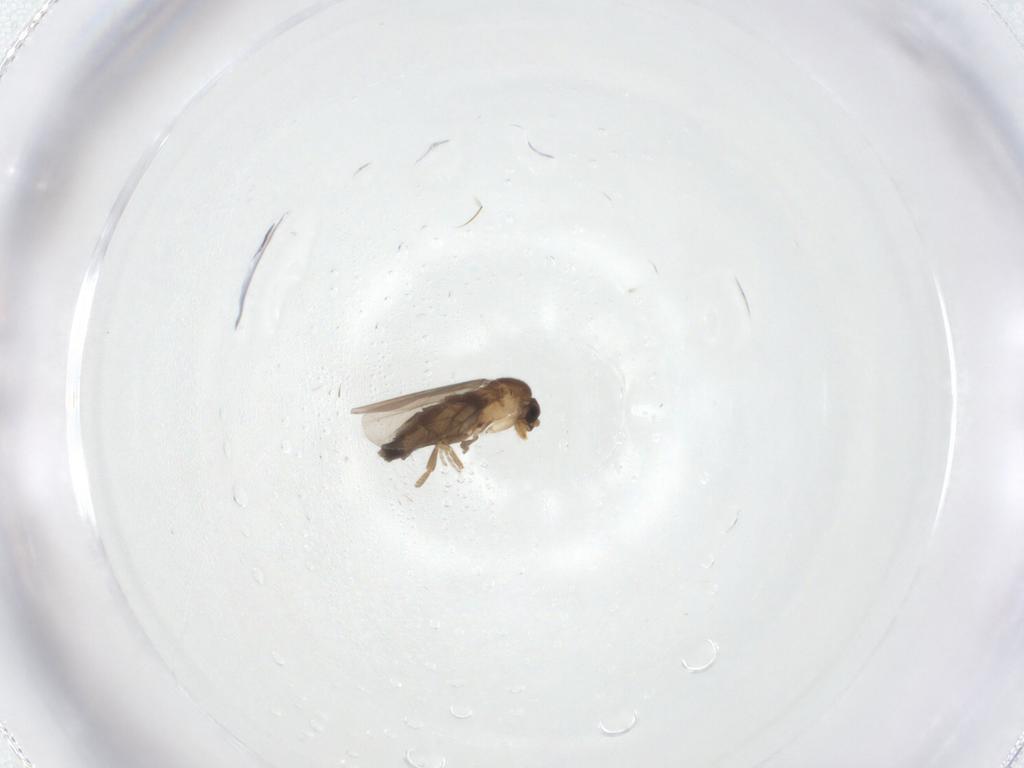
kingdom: Animalia
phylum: Arthropoda
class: Insecta
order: Diptera
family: Phoridae
